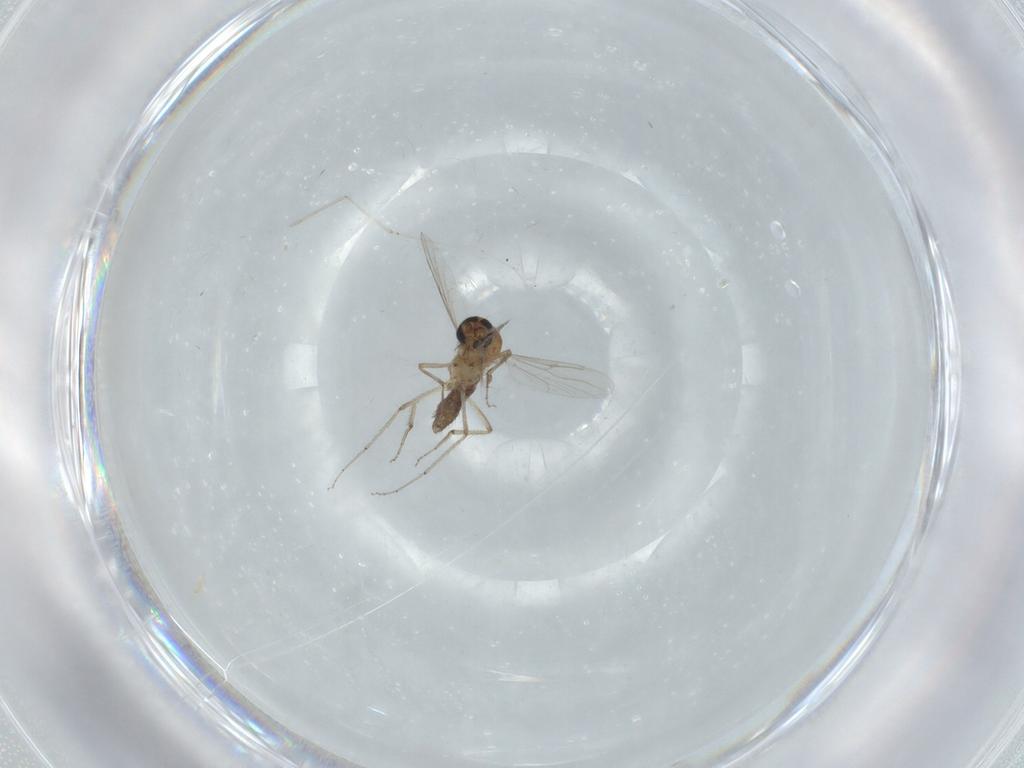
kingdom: Animalia
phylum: Arthropoda
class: Insecta
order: Diptera
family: Ceratopogonidae
